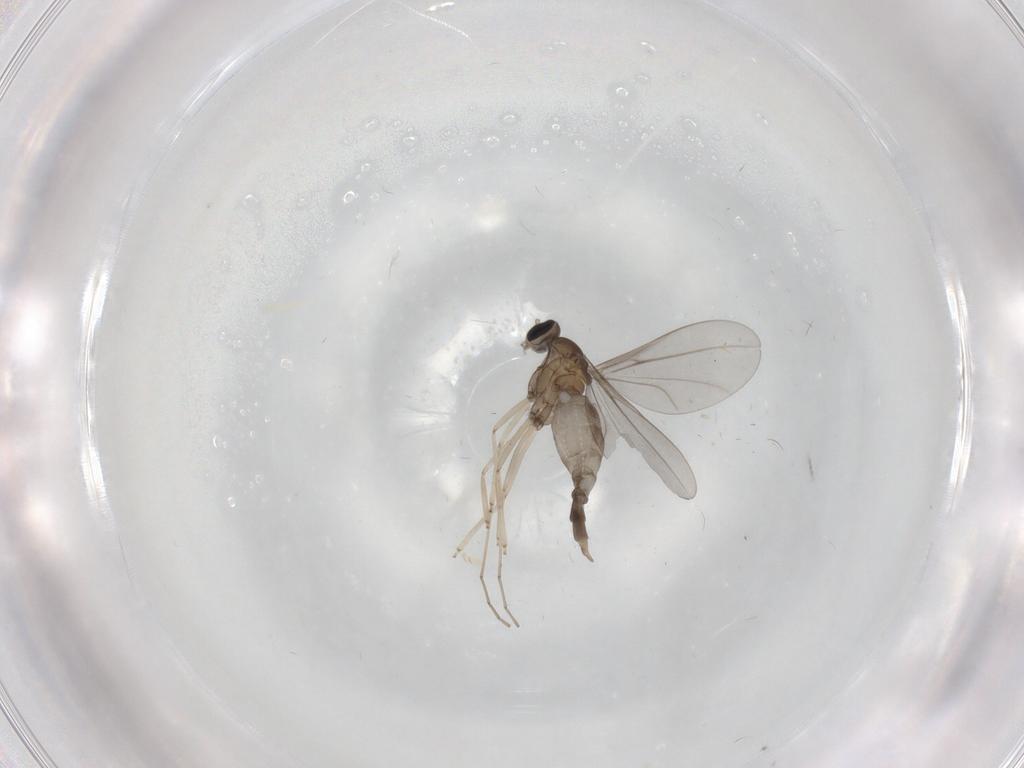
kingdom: Animalia
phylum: Arthropoda
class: Insecta
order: Diptera
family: Cecidomyiidae
